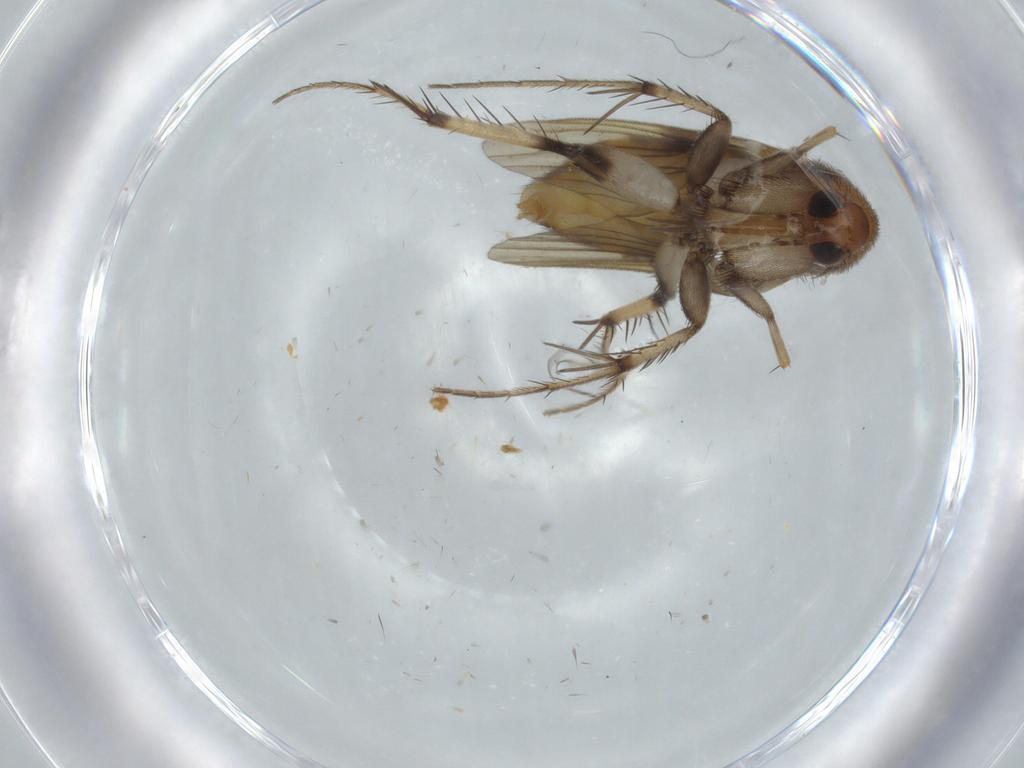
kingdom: Animalia
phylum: Arthropoda
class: Insecta
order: Diptera
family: Mycetophilidae
